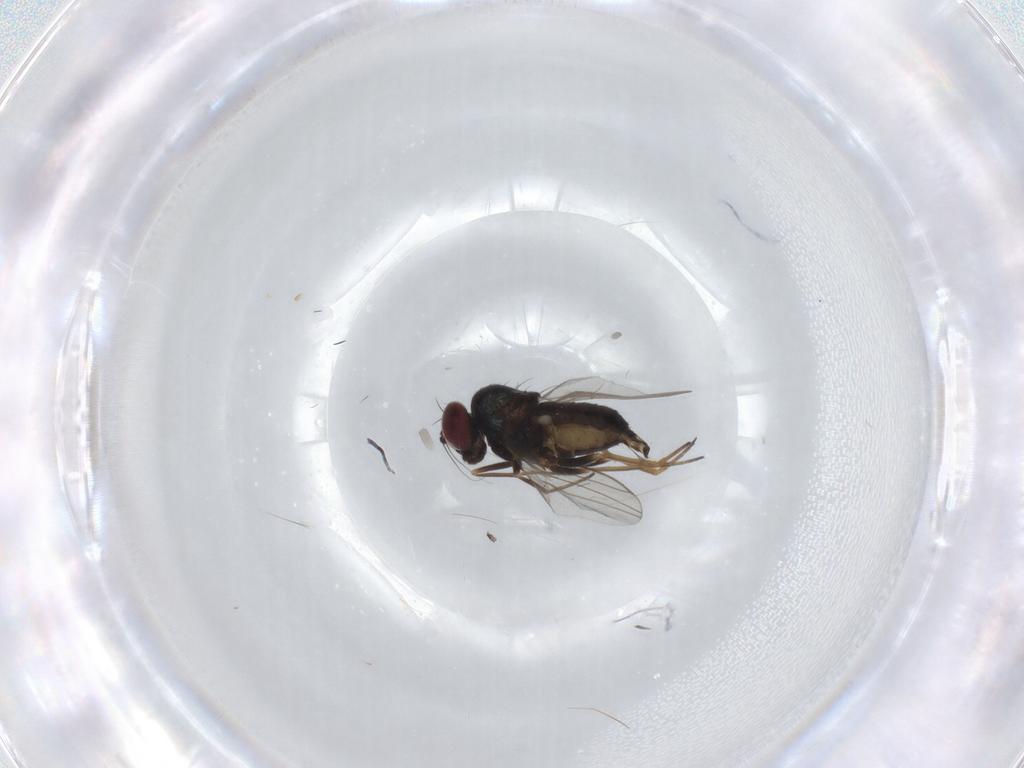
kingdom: Animalia
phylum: Arthropoda
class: Insecta
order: Diptera
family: Dolichopodidae
